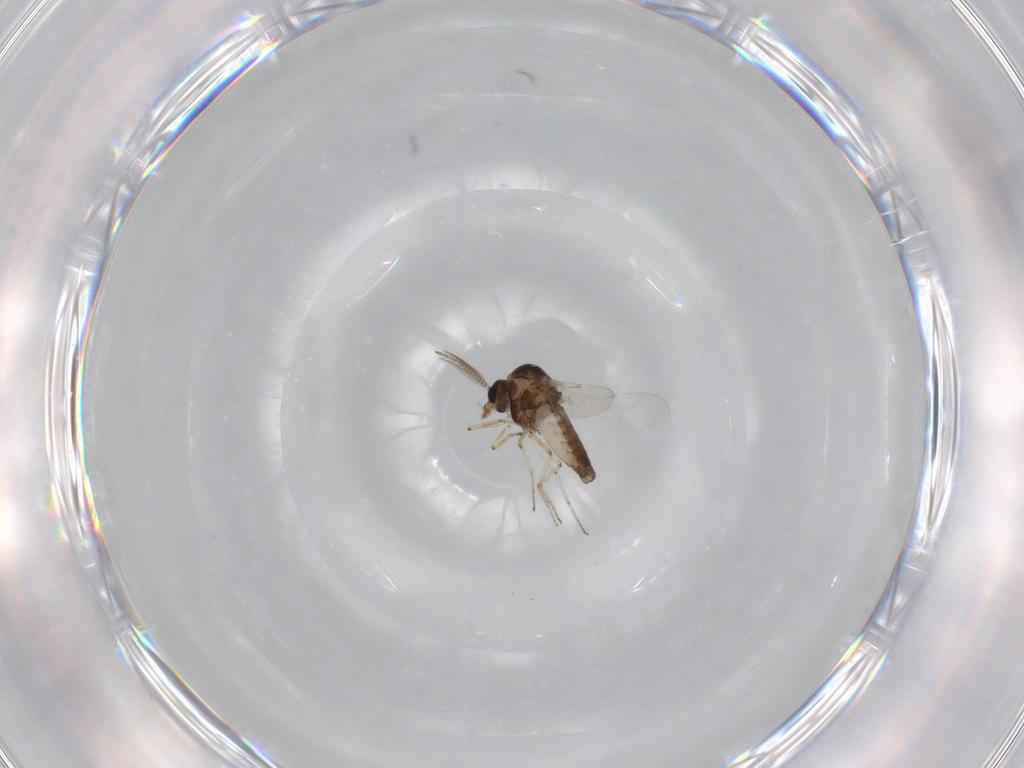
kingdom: Animalia
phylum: Arthropoda
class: Insecta
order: Diptera
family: Ceratopogonidae
